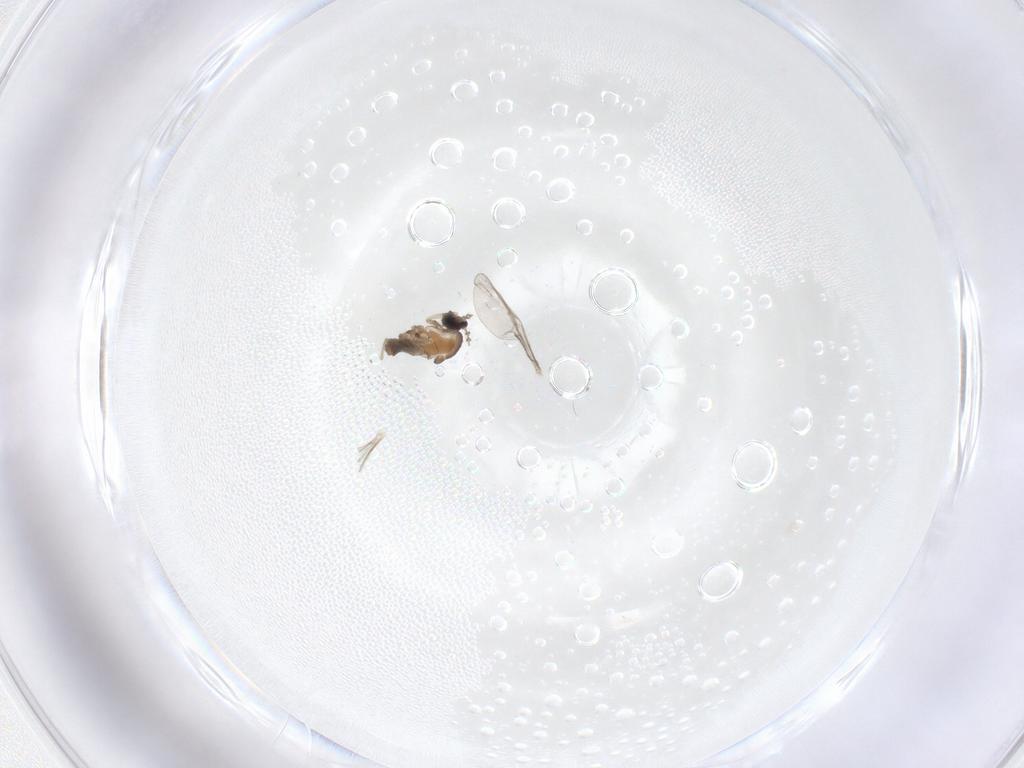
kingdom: Animalia
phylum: Arthropoda
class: Insecta
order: Diptera
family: Cecidomyiidae
